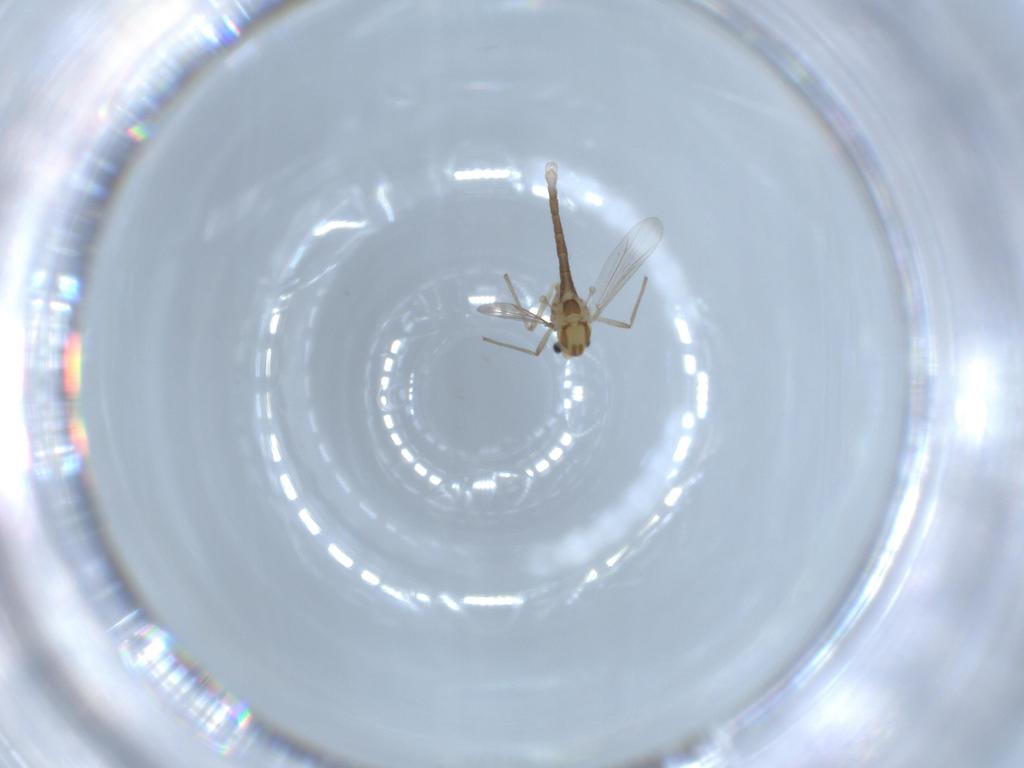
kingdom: Animalia
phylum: Arthropoda
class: Insecta
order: Diptera
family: Chironomidae
